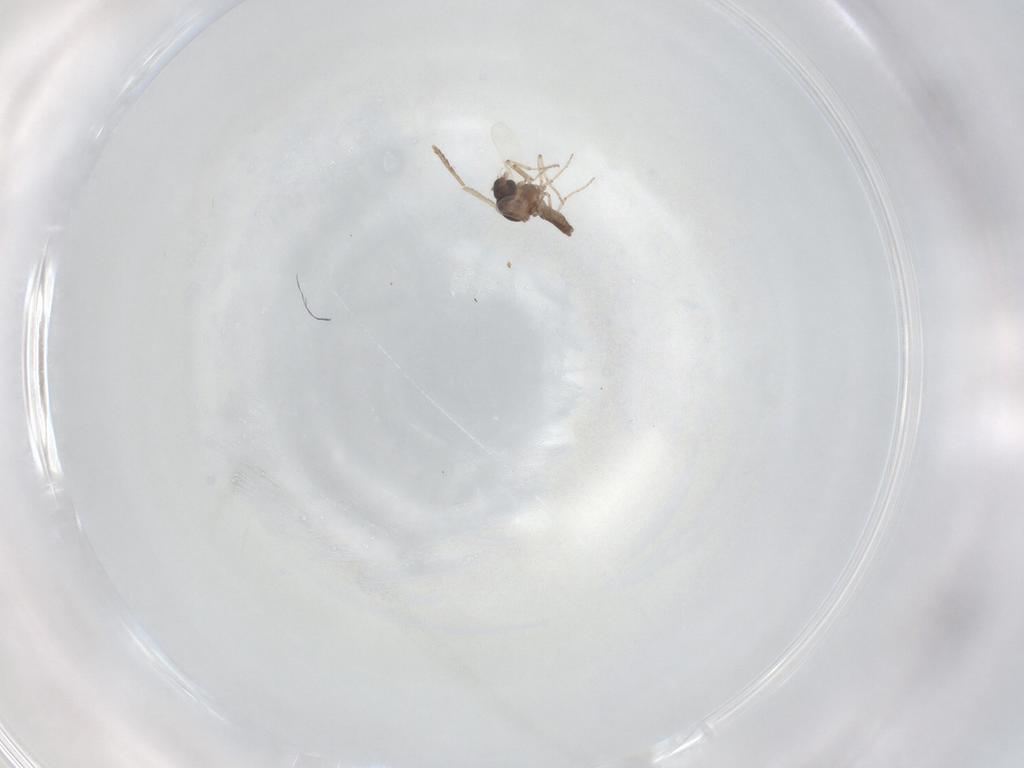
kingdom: Animalia
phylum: Arthropoda
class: Insecta
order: Diptera
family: Ceratopogonidae
